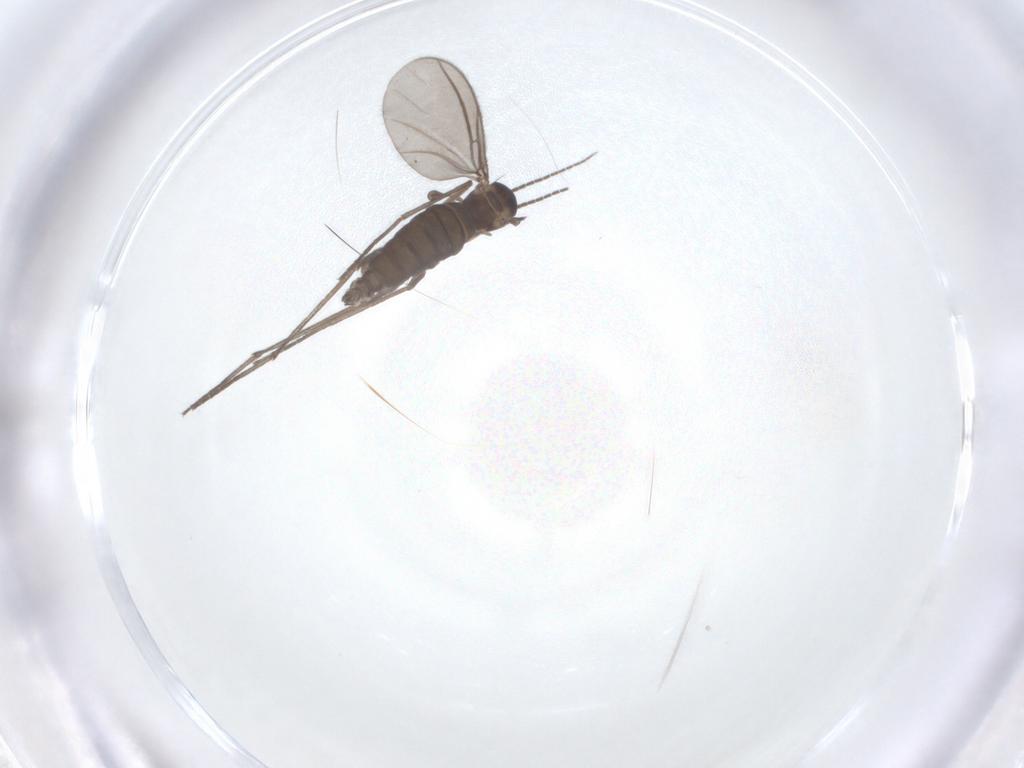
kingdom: Animalia
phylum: Arthropoda
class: Insecta
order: Diptera
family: Sciaridae
